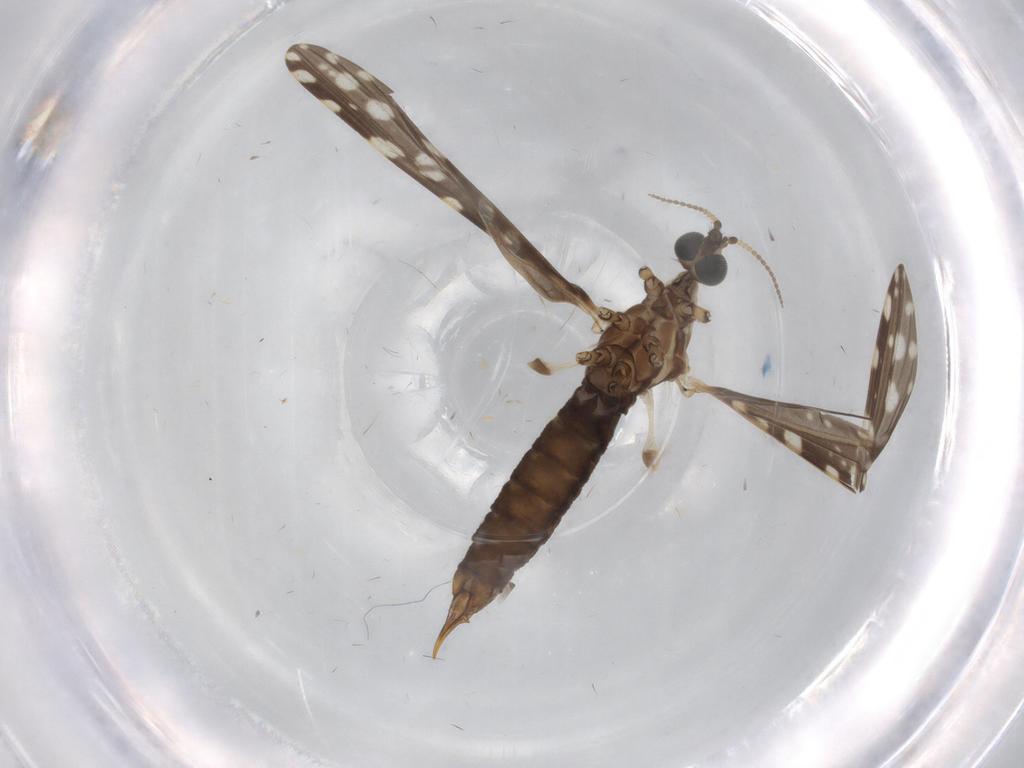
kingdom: Animalia
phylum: Arthropoda
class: Insecta
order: Diptera
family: Limoniidae
